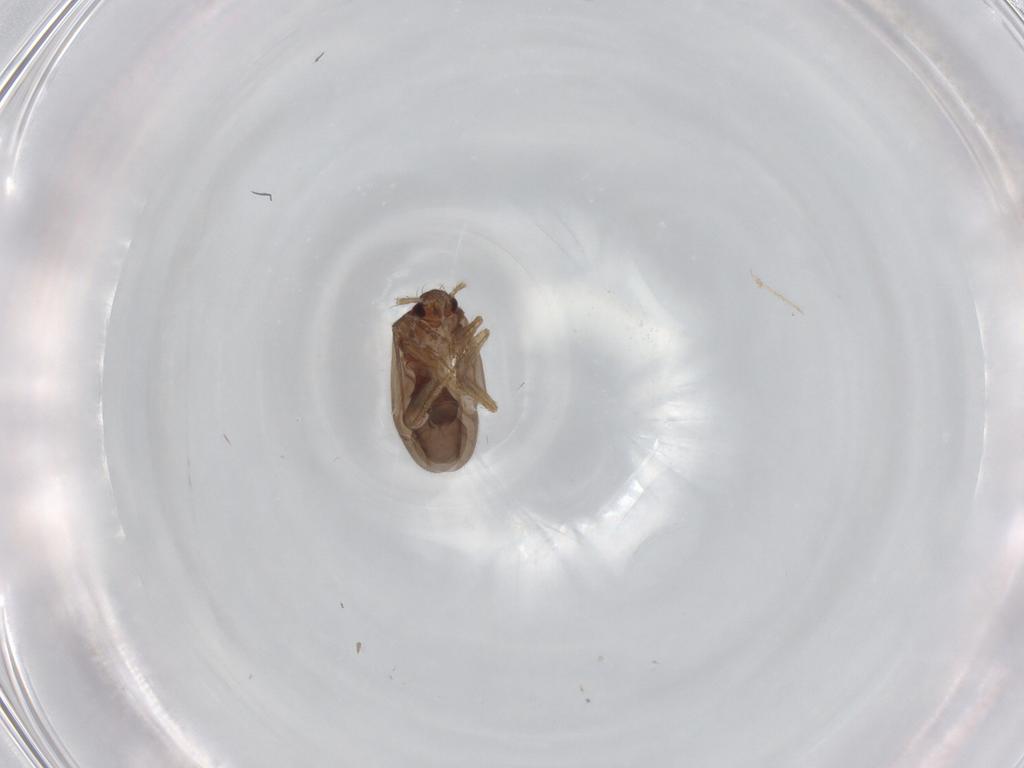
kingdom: Animalia
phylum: Arthropoda
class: Insecta
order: Hemiptera
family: Ceratocombidae
